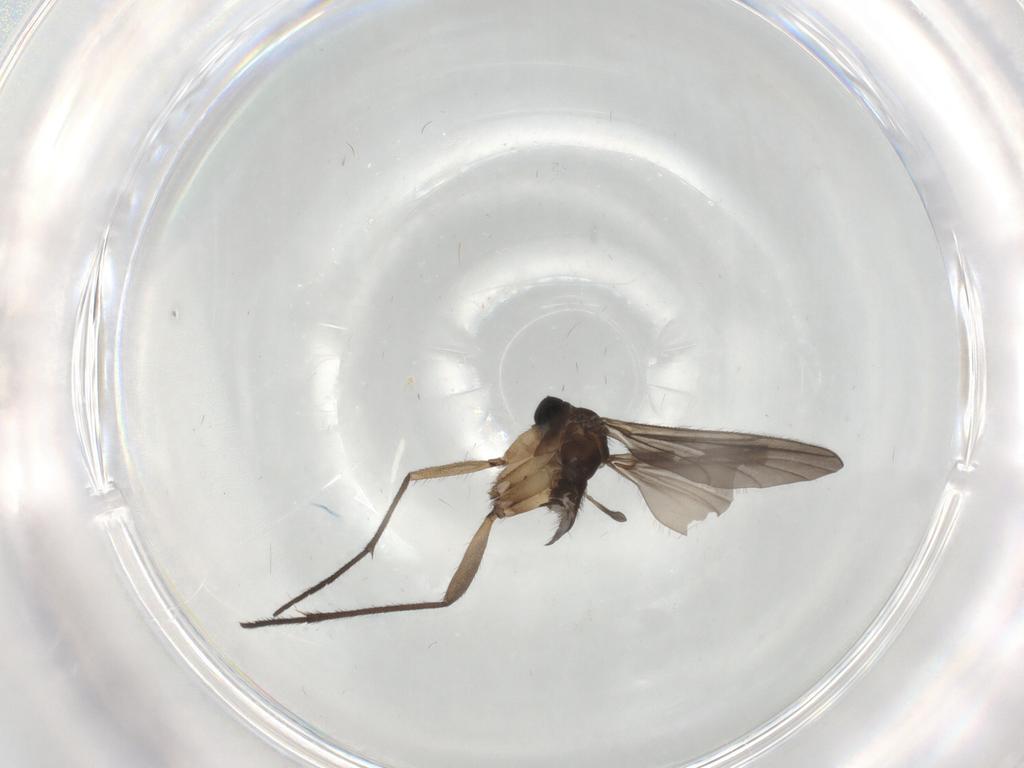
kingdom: Animalia
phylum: Arthropoda
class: Insecta
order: Diptera
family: Sciaridae
